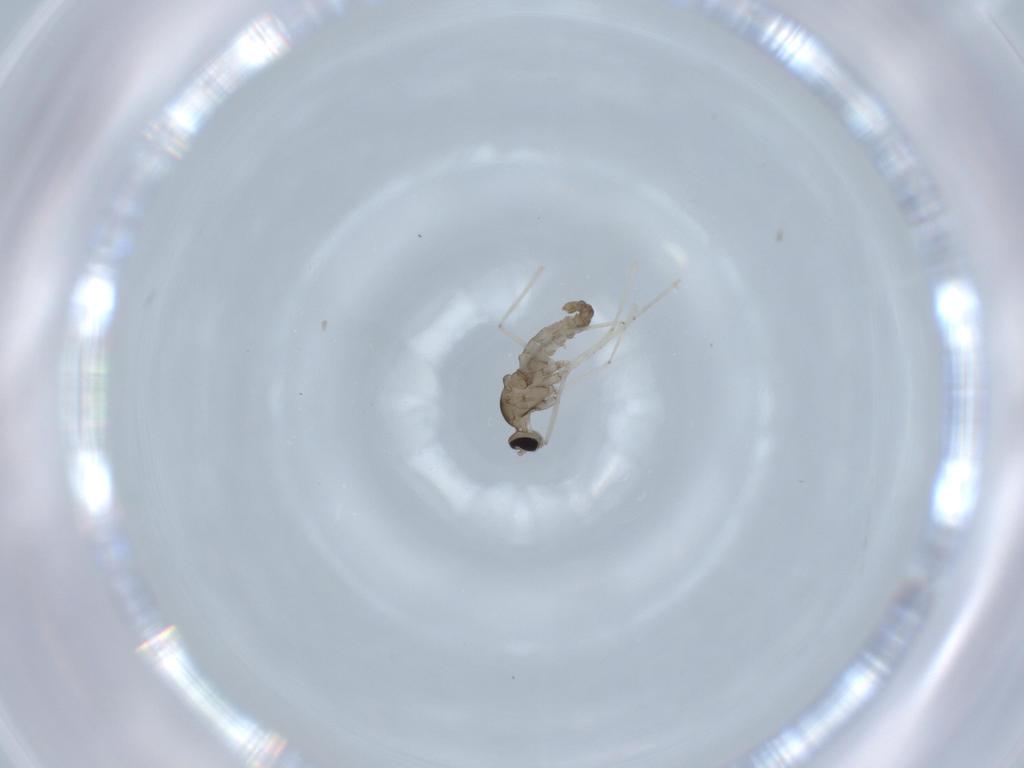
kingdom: Animalia
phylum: Arthropoda
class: Insecta
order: Diptera
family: Cecidomyiidae
